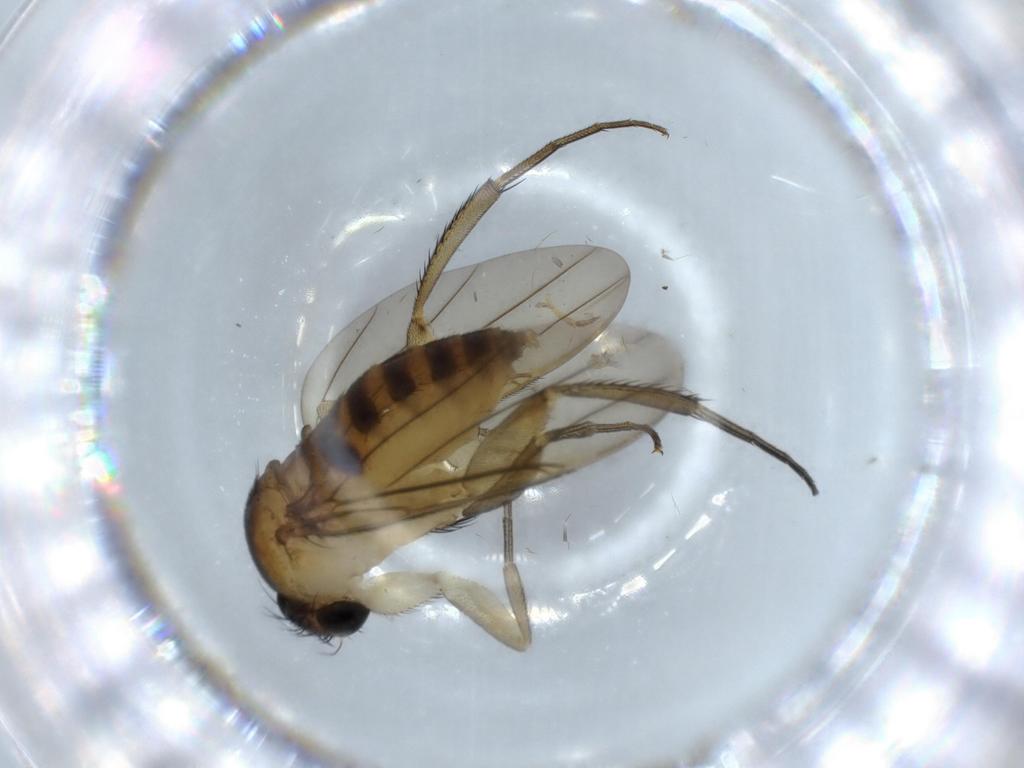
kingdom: Animalia
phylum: Arthropoda
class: Insecta
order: Diptera
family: Phoridae
